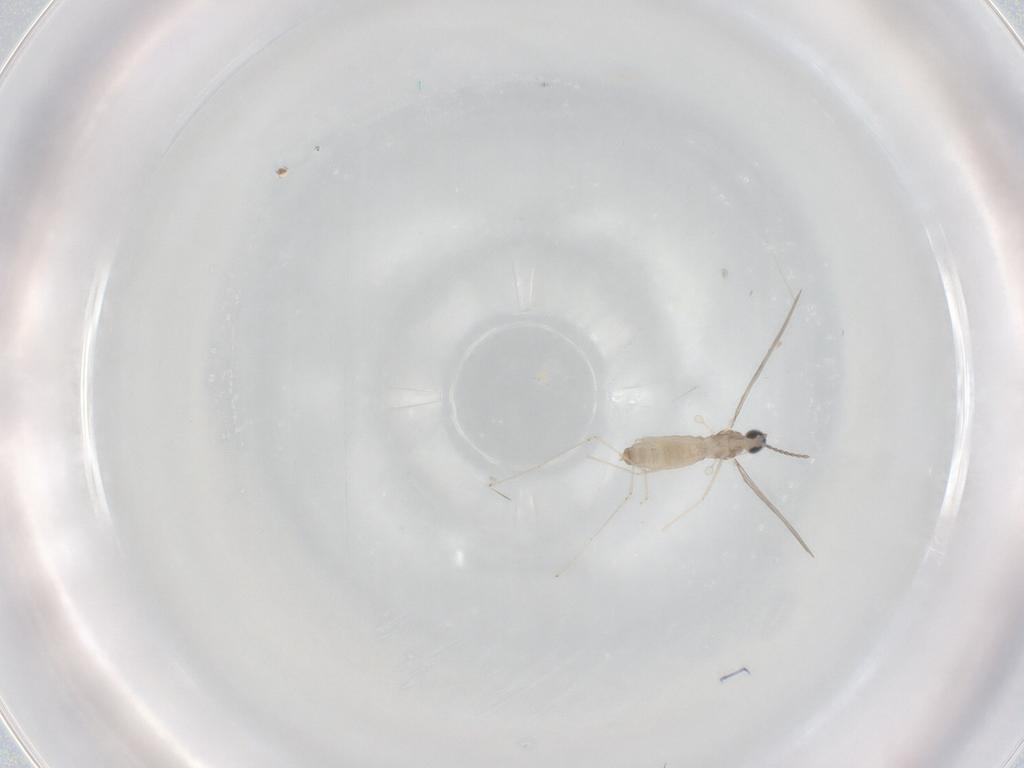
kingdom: Animalia
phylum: Arthropoda
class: Insecta
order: Diptera
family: Cecidomyiidae
